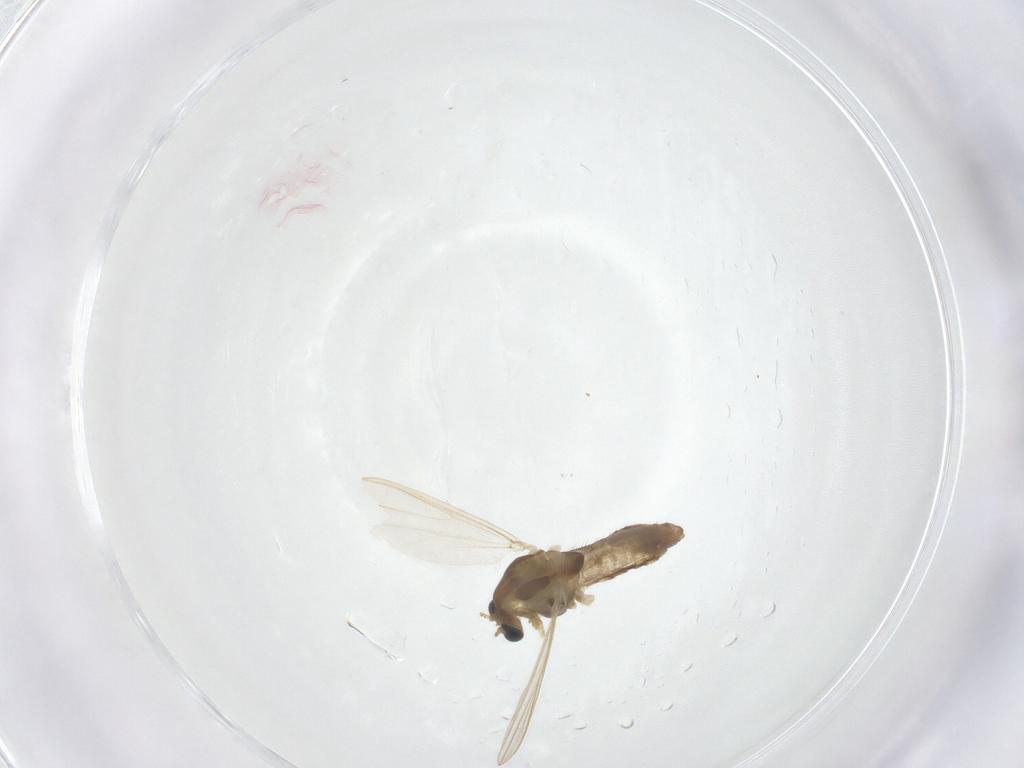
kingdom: Animalia
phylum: Arthropoda
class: Insecta
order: Diptera
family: Chironomidae
